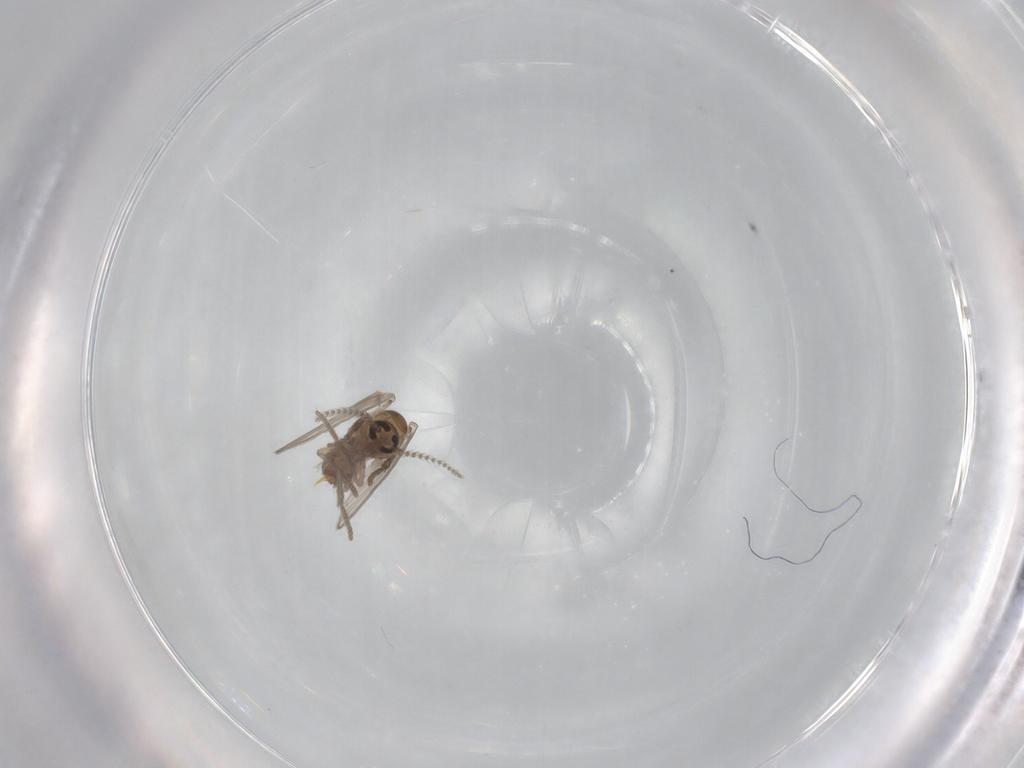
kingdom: Animalia
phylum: Arthropoda
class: Insecta
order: Diptera
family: Psychodidae
